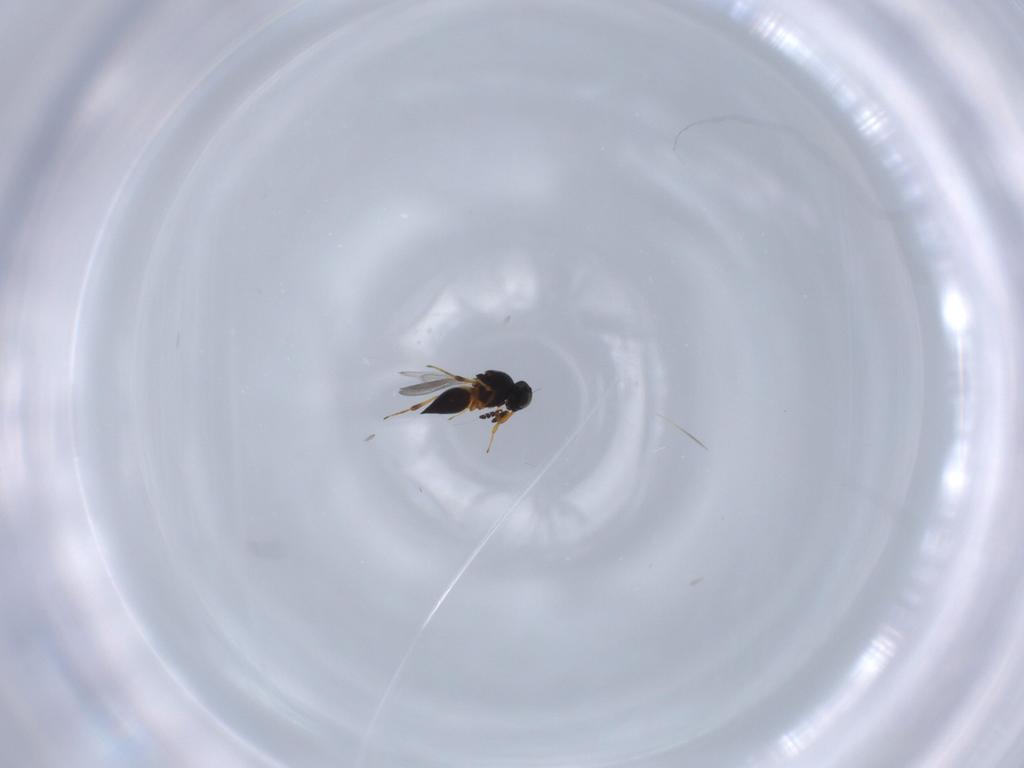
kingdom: Animalia
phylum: Arthropoda
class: Insecta
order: Hymenoptera
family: Platygastridae
